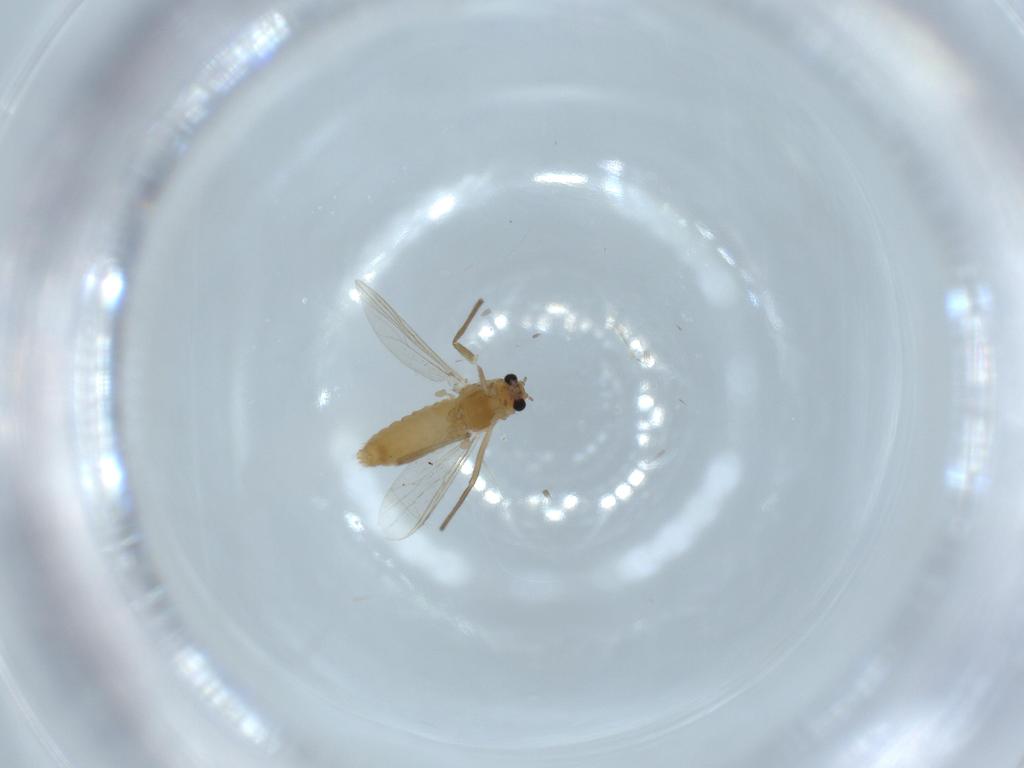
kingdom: Animalia
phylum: Arthropoda
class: Insecta
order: Diptera
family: Chironomidae
